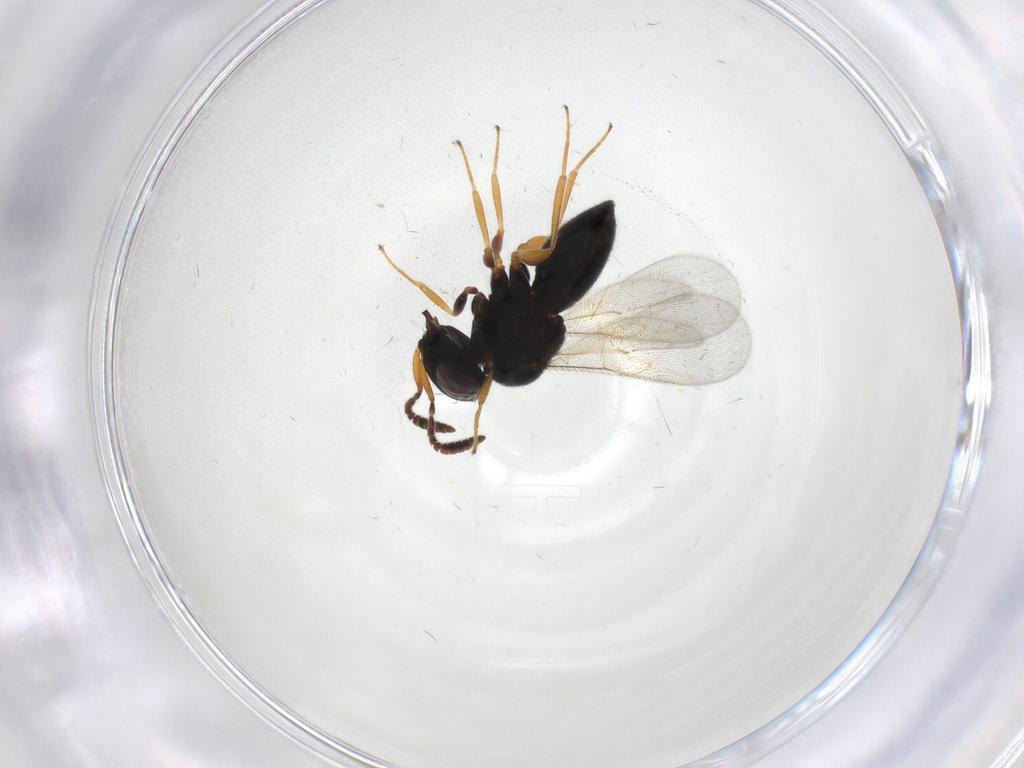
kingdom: Animalia
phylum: Arthropoda
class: Insecta
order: Hymenoptera
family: Scelionidae
